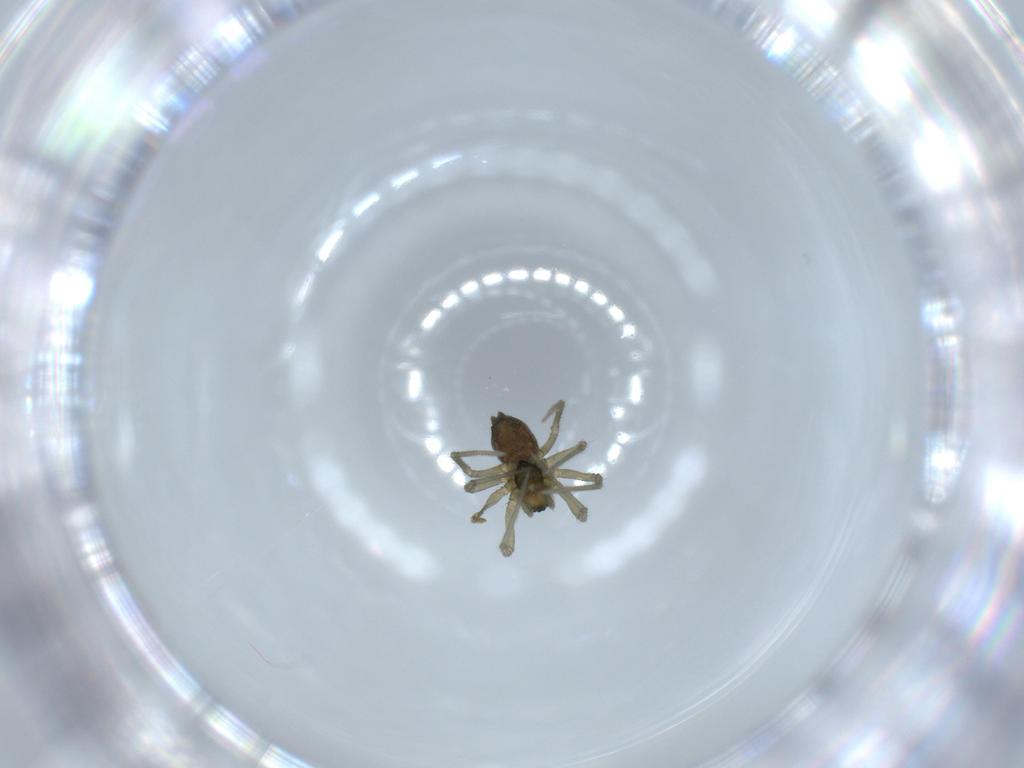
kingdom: Animalia
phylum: Arthropoda
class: Arachnida
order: Araneae
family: Linyphiidae
